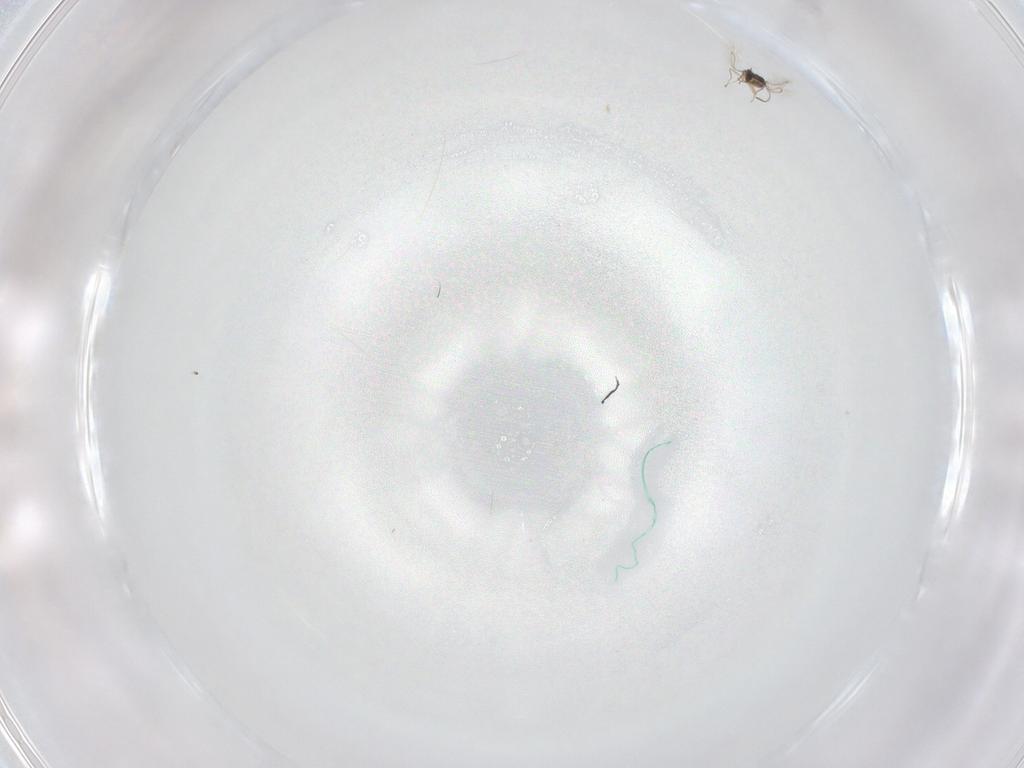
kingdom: Animalia
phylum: Arthropoda
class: Insecta
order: Hymenoptera
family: Mymaridae
